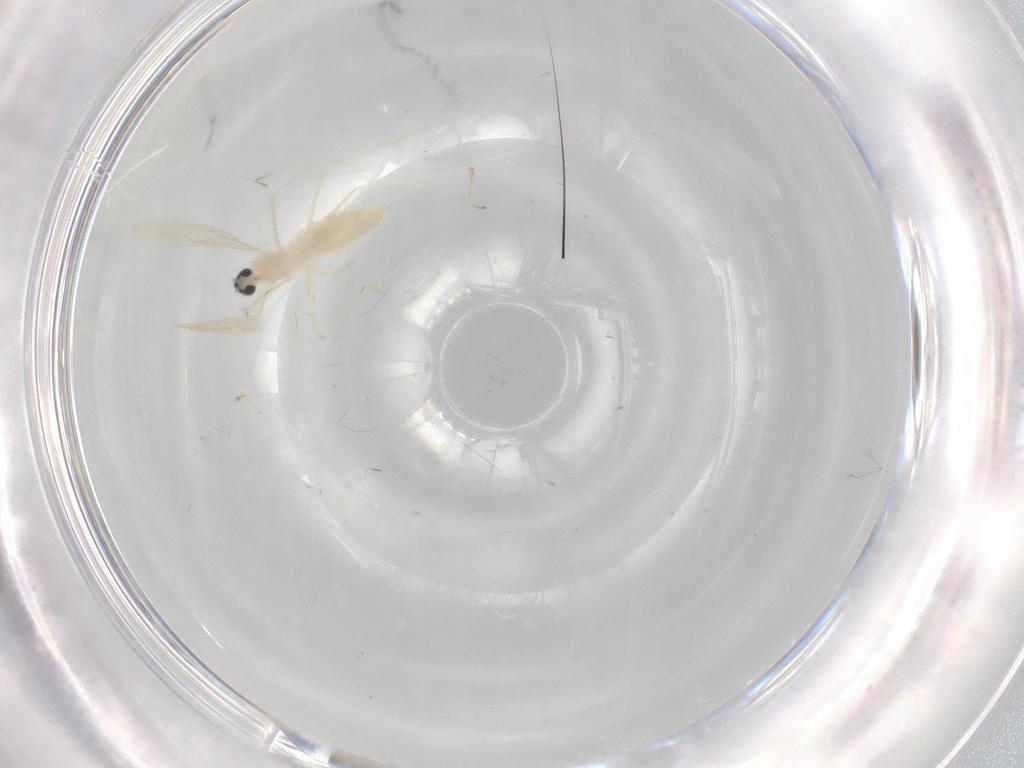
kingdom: Animalia
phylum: Arthropoda
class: Insecta
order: Diptera
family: Cecidomyiidae
